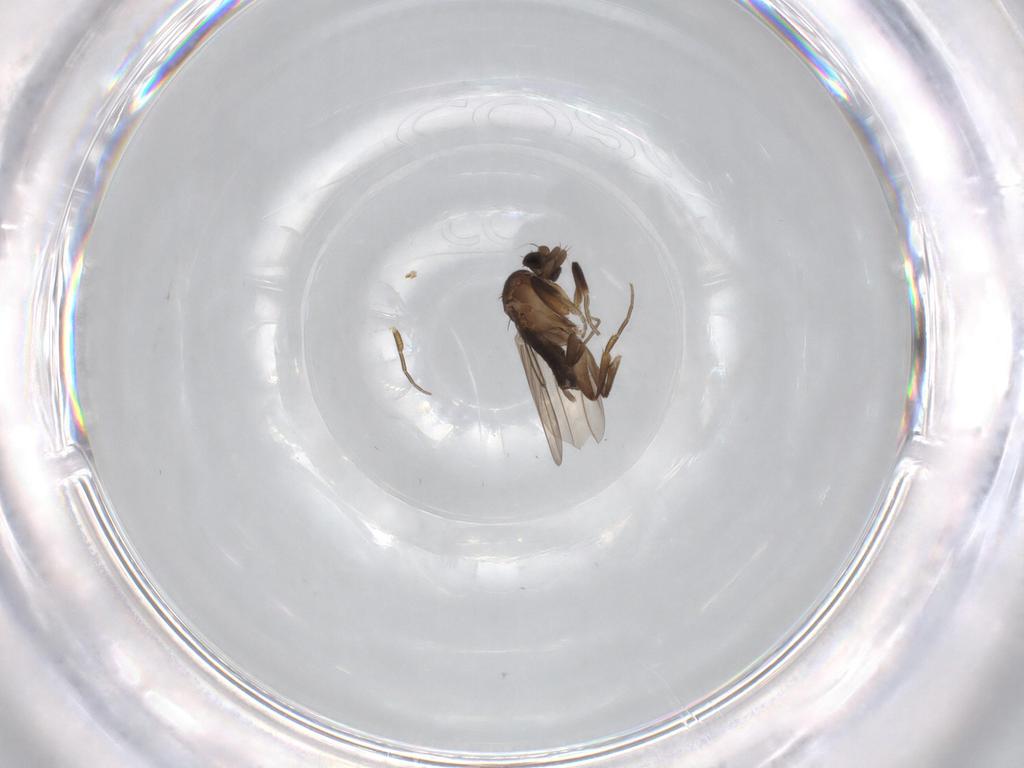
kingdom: Animalia
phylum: Arthropoda
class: Insecta
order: Diptera
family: Phoridae
